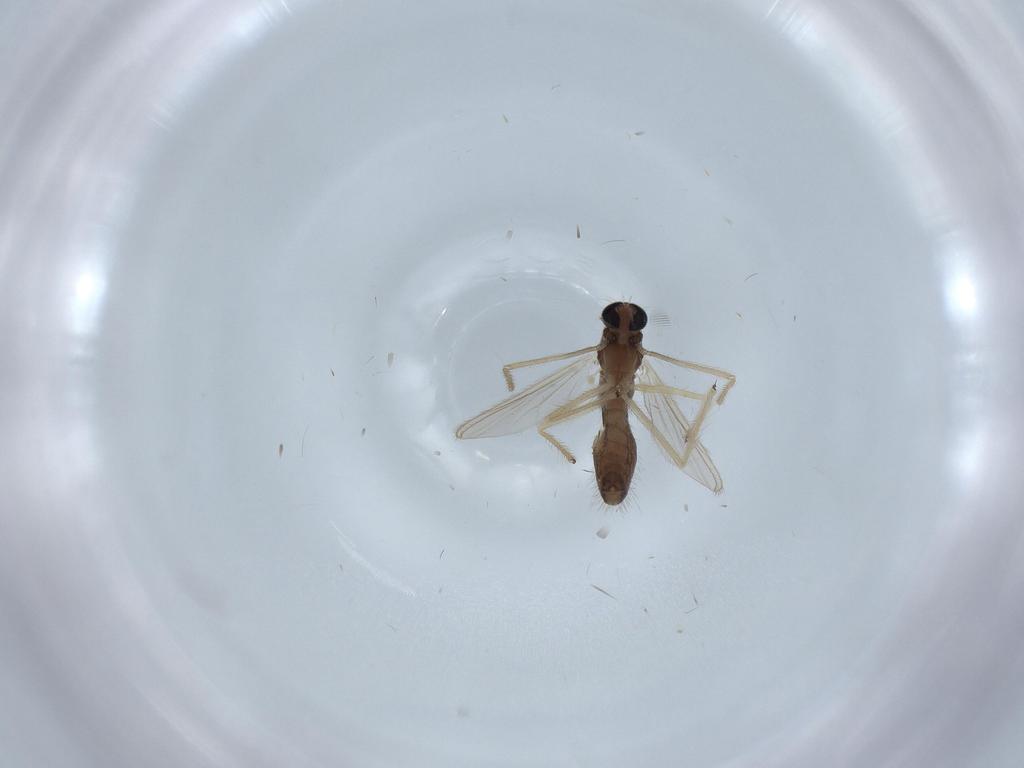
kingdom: Animalia
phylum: Arthropoda
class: Insecta
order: Diptera
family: Chironomidae
